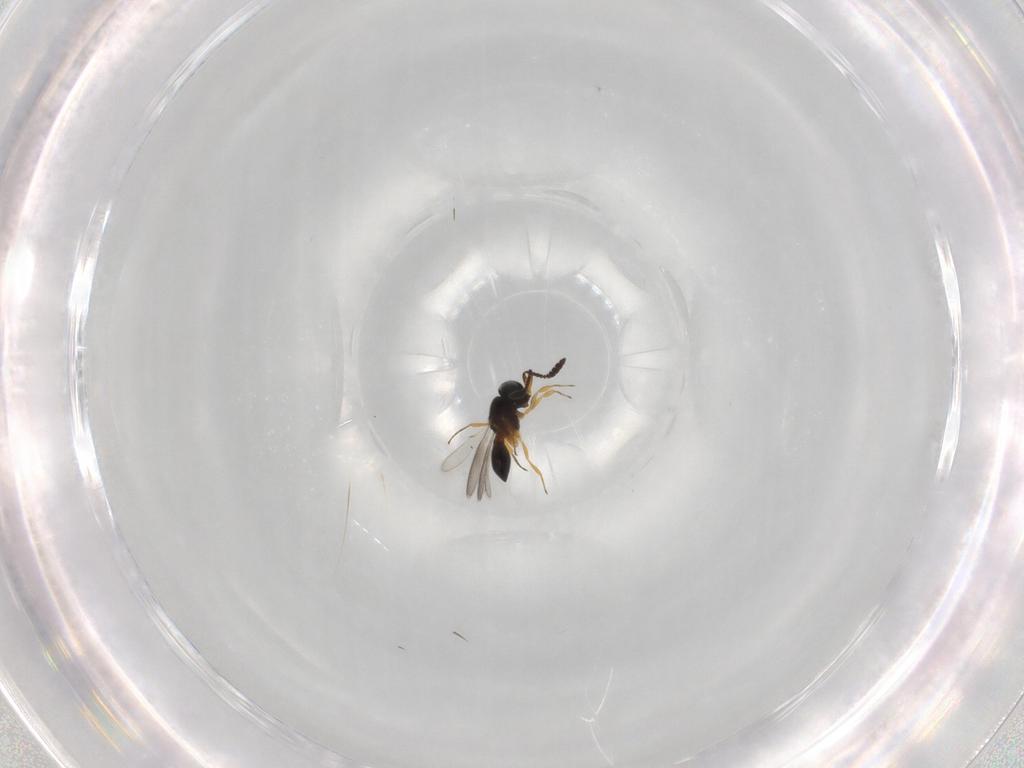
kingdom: Animalia
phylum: Arthropoda
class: Insecta
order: Hymenoptera
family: Scelionidae
